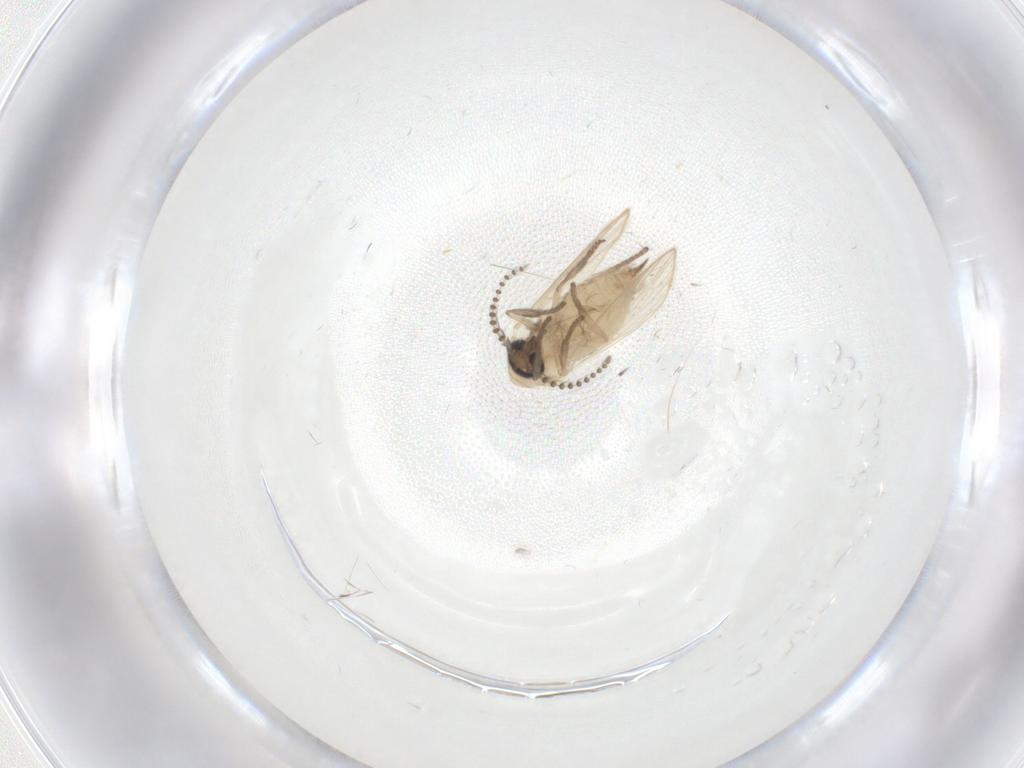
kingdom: Animalia
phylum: Arthropoda
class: Insecta
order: Diptera
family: Psychodidae
